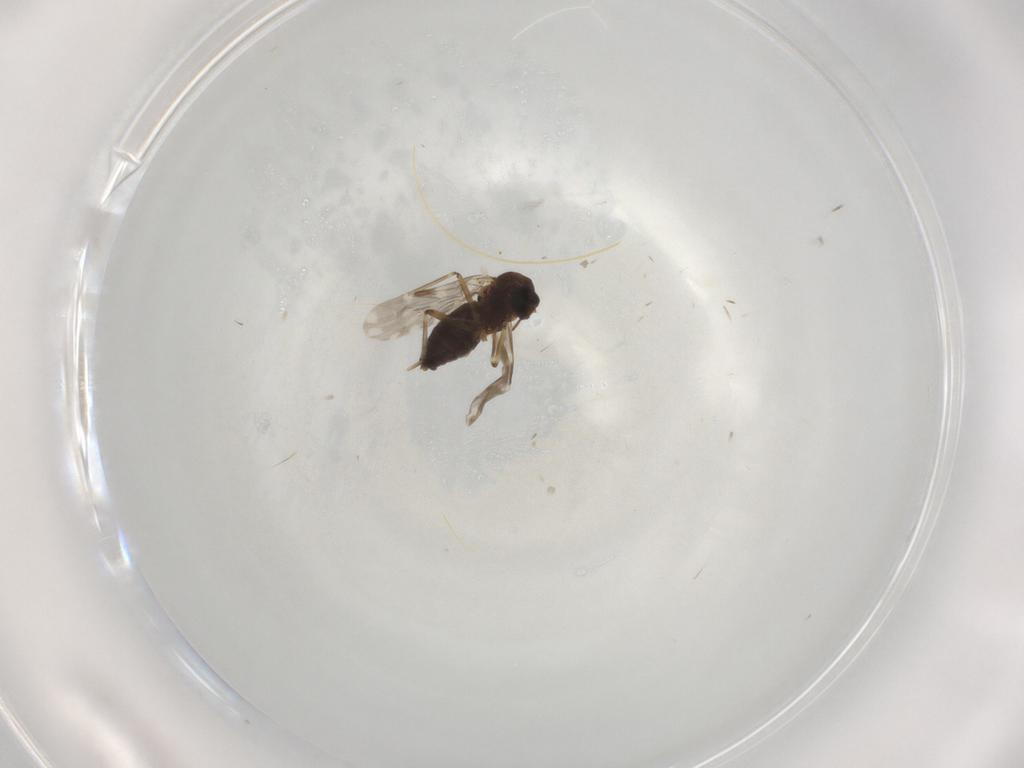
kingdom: Animalia
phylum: Arthropoda
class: Insecta
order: Diptera
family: Ceratopogonidae
